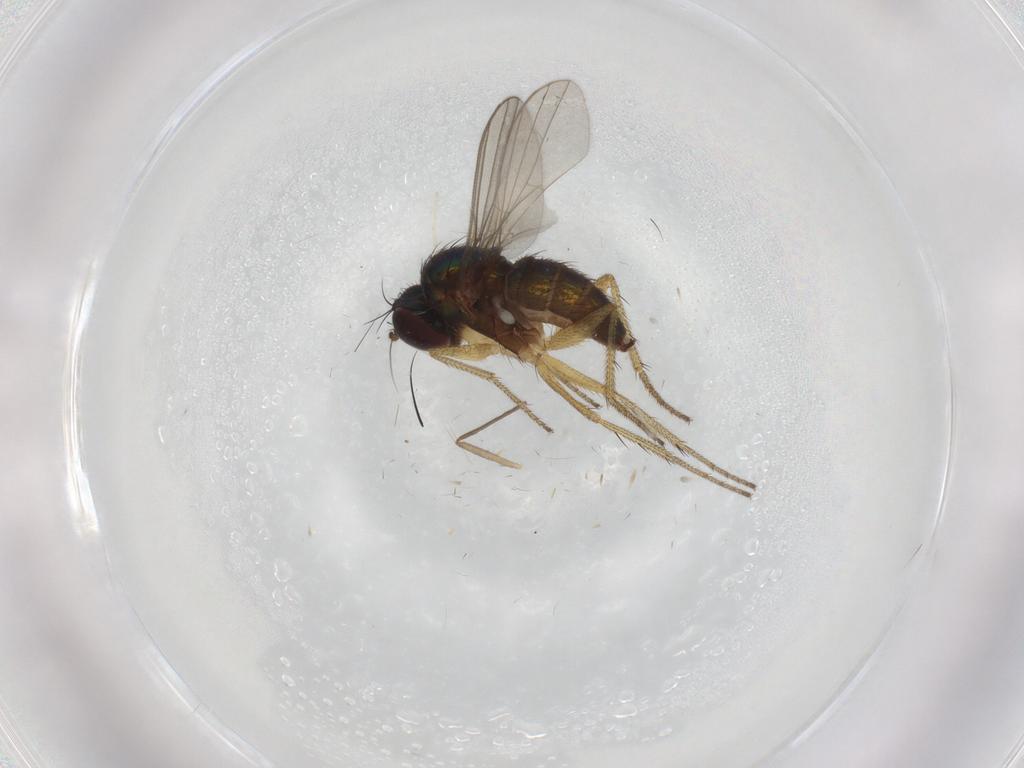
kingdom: Animalia
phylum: Arthropoda
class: Insecta
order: Diptera
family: Chironomidae
